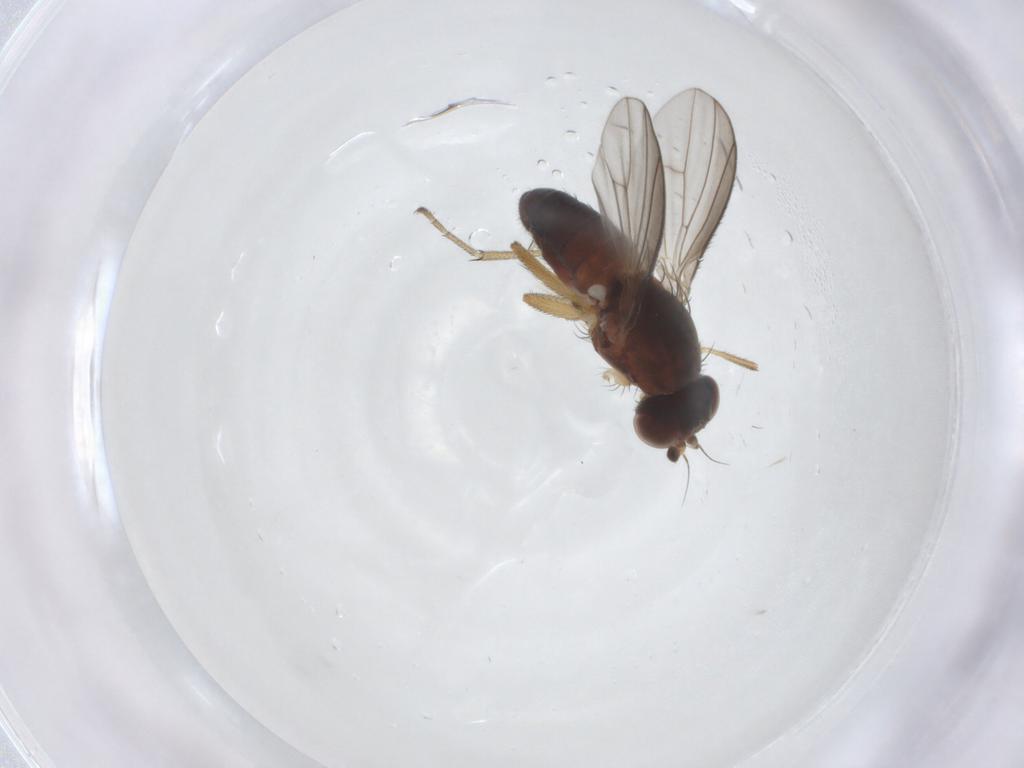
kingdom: Animalia
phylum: Arthropoda
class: Insecta
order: Diptera
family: Heleomyzidae
